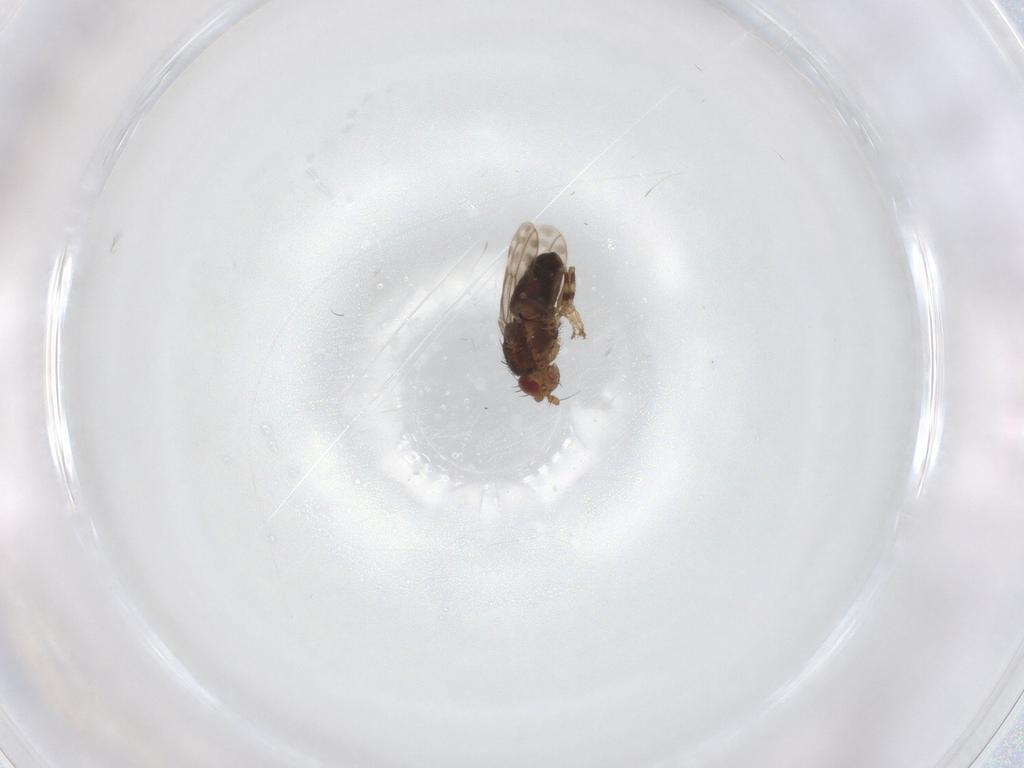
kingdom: Animalia
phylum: Arthropoda
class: Insecta
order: Diptera
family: Sphaeroceridae
